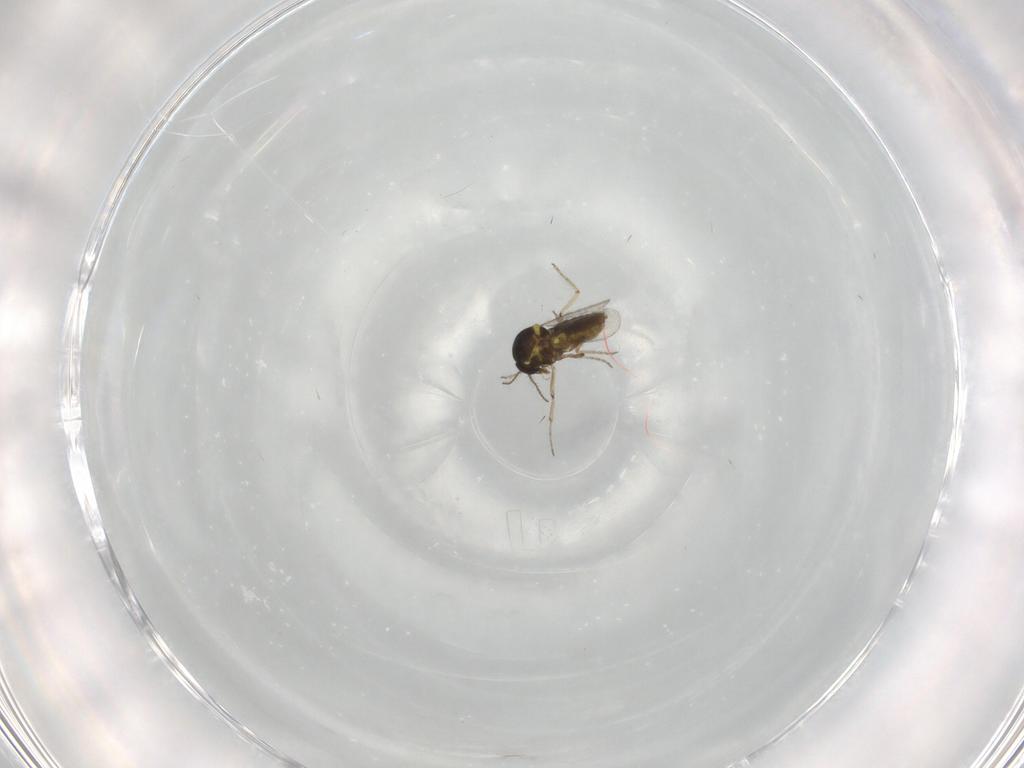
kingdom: Animalia
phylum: Arthropoda
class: Insecta
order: Diptera
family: Ceratopogonidae
